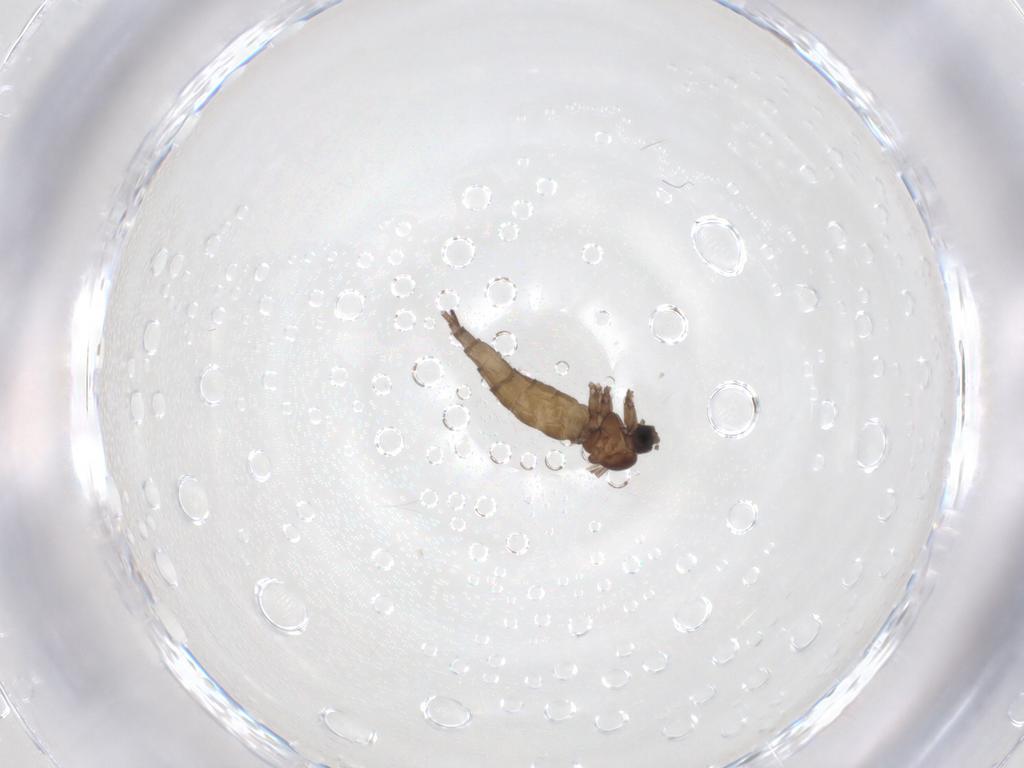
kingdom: Animalia
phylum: Arthropoda
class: Insecta
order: Diptera
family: Sciaridae
